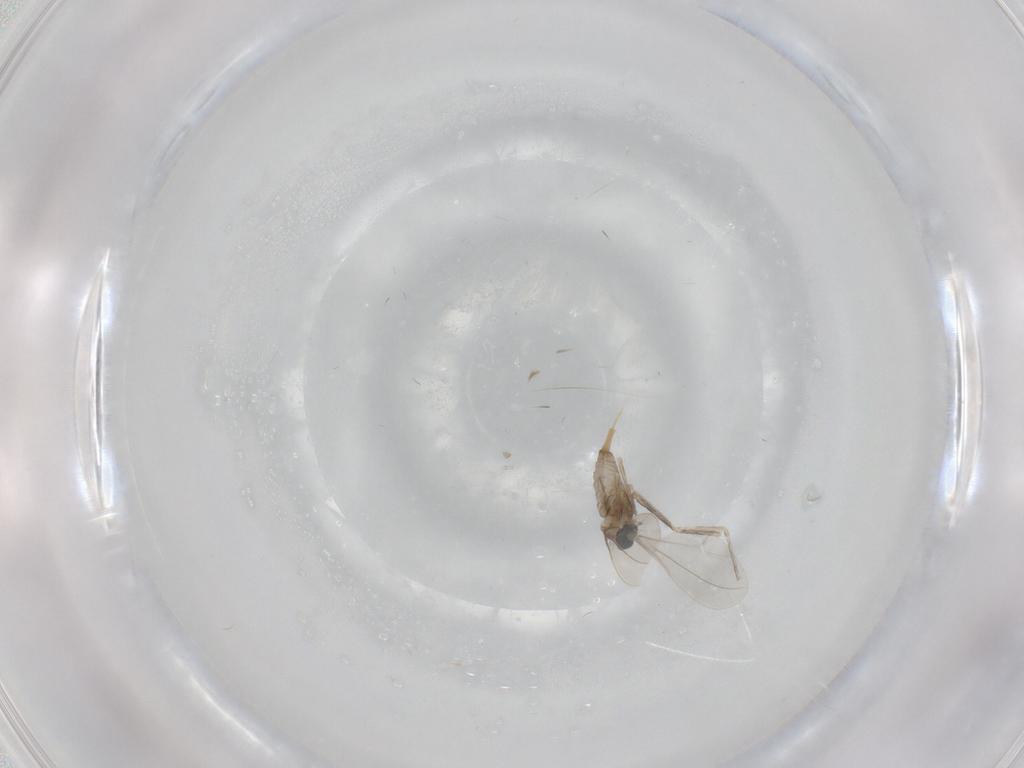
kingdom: Animalia
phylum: Arthropoda
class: Insecta
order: Diptera
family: Cecidomyiidae
